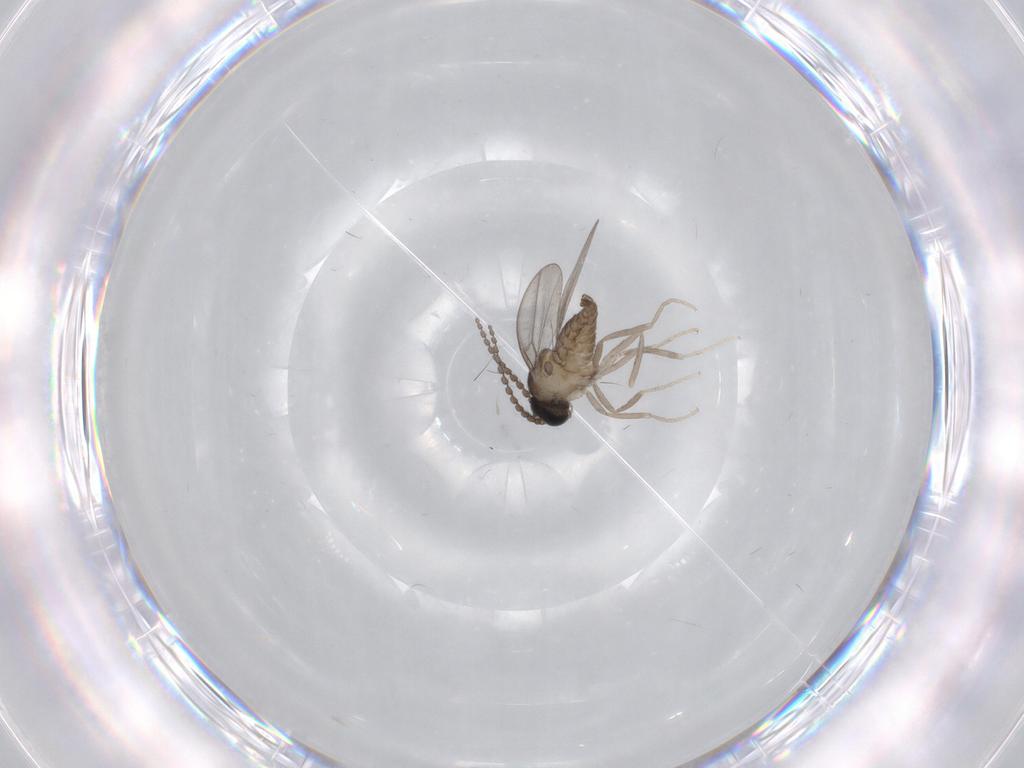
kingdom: Animalia
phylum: Arthropoda
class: Insecta
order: Diptera
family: Cecidomyiidae
